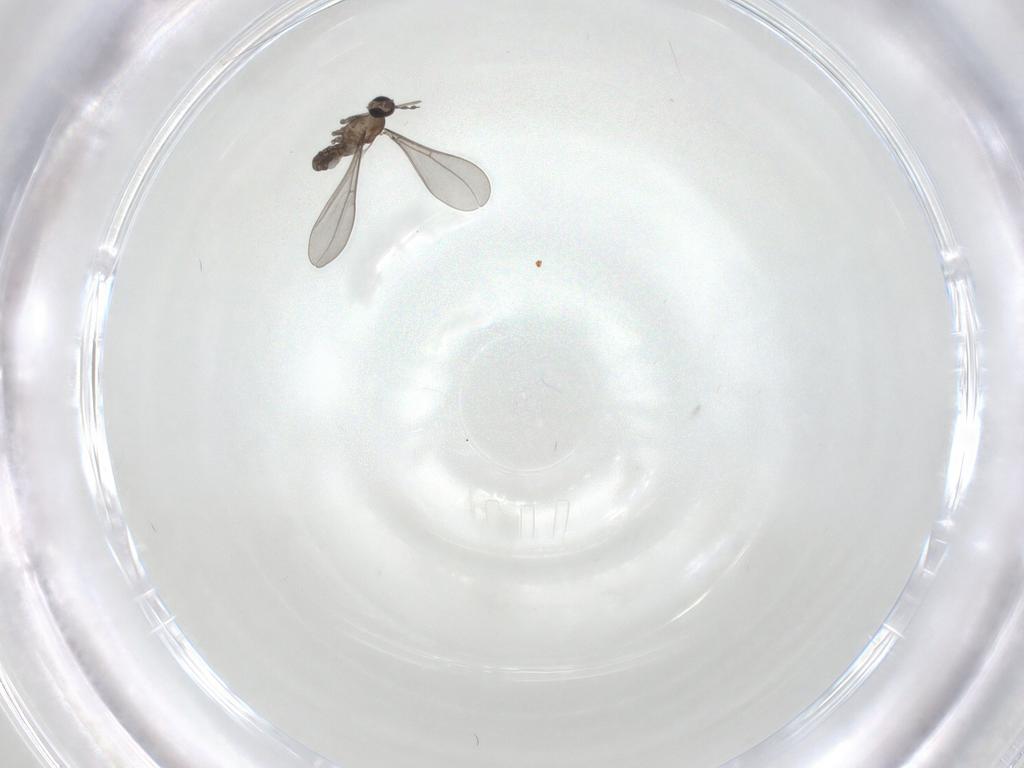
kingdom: Animalia
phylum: Arthropoda
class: Insecta
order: Diptera
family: Cecidomyiidae
